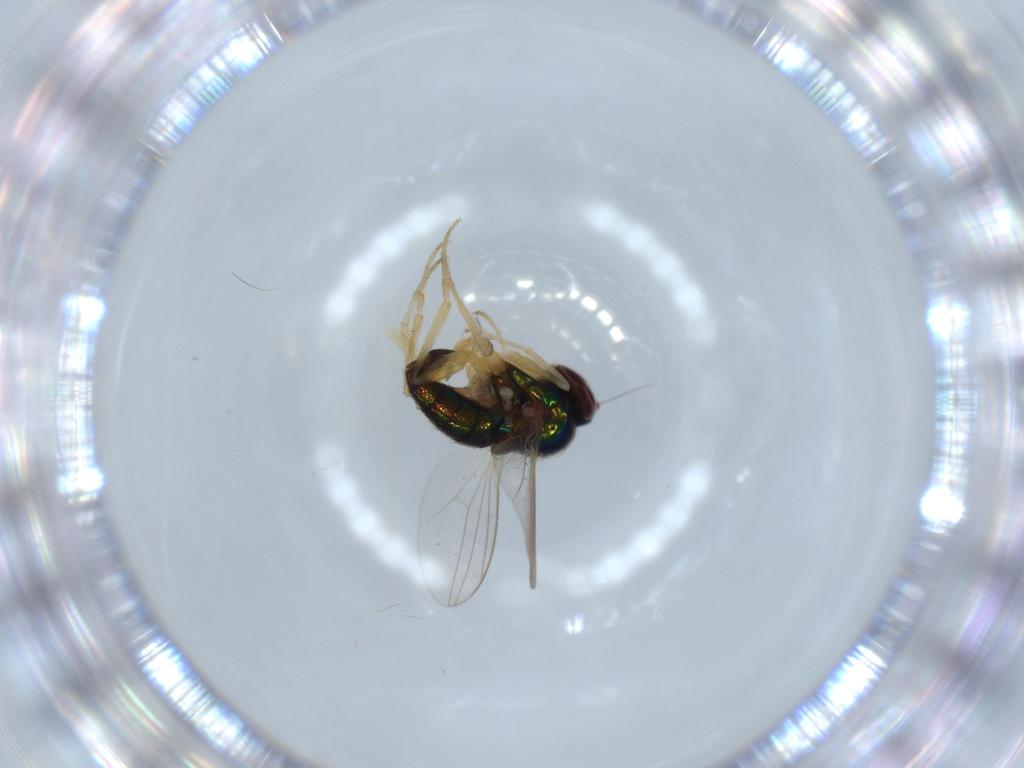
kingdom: Animalia
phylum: Arthropoda
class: Insecta
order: Diptera
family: Dolichopodidae
